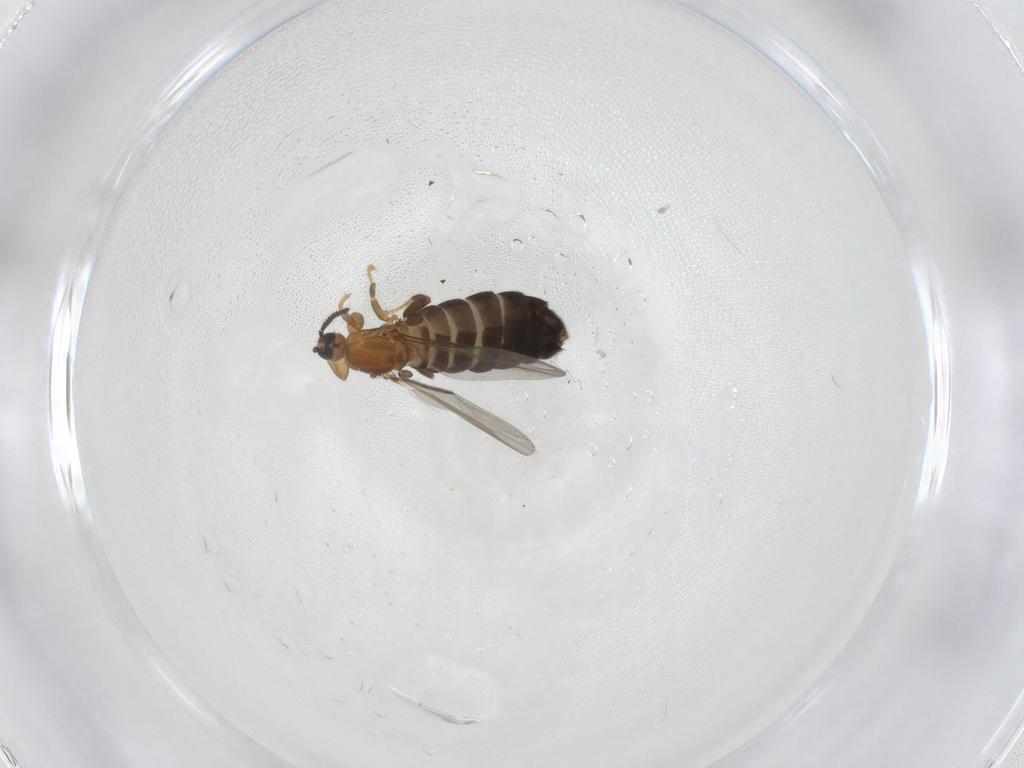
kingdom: Animalia
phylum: Arthropoda
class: Insecta
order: Diptera
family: Scatopsidae
